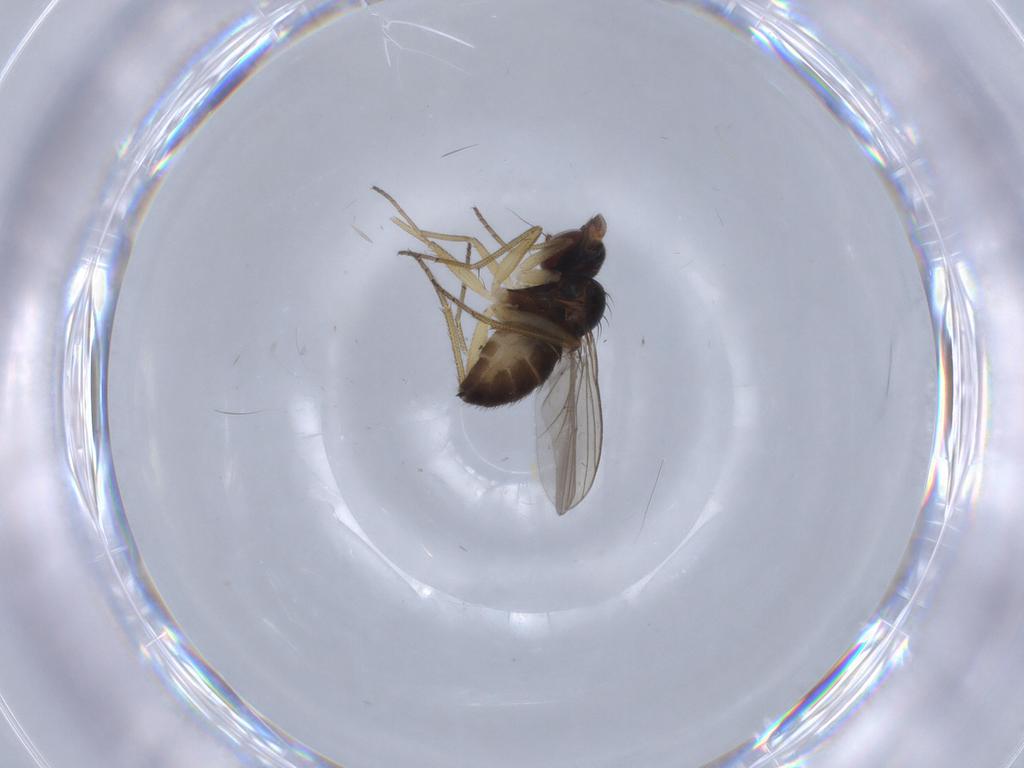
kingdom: Animalia
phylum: Arthropoda
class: Insecta
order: Diptera
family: Dolichopodidae
